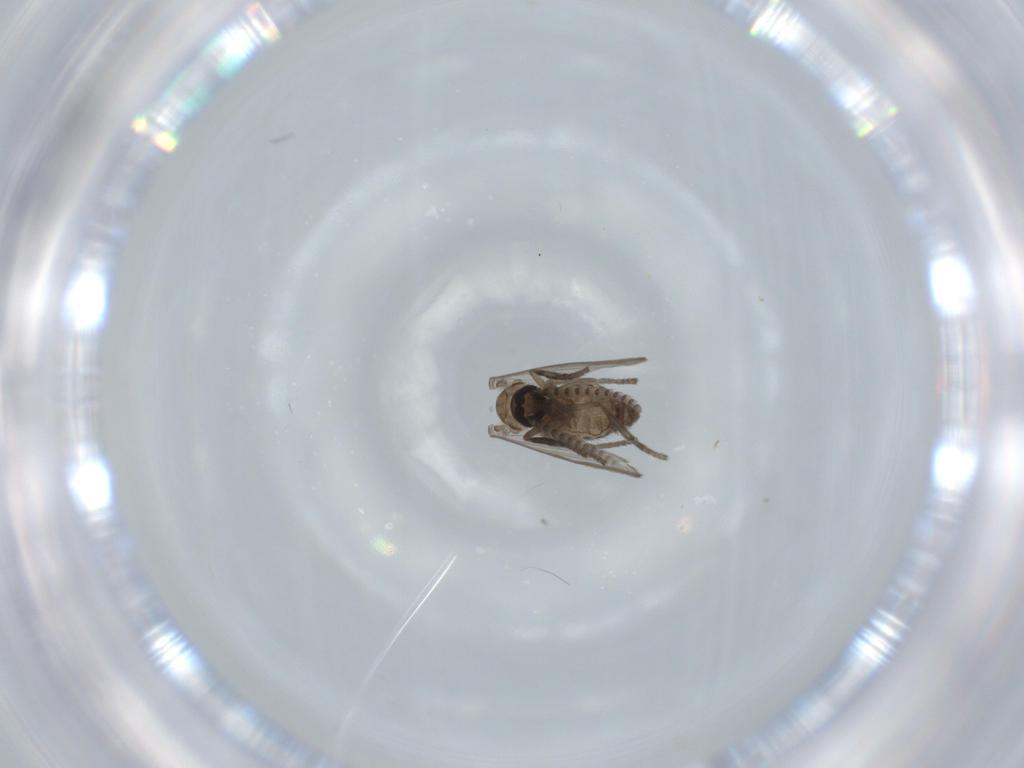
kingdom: Animalia
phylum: Arthropoda
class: Insecta
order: Diptera
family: Psychodidae
